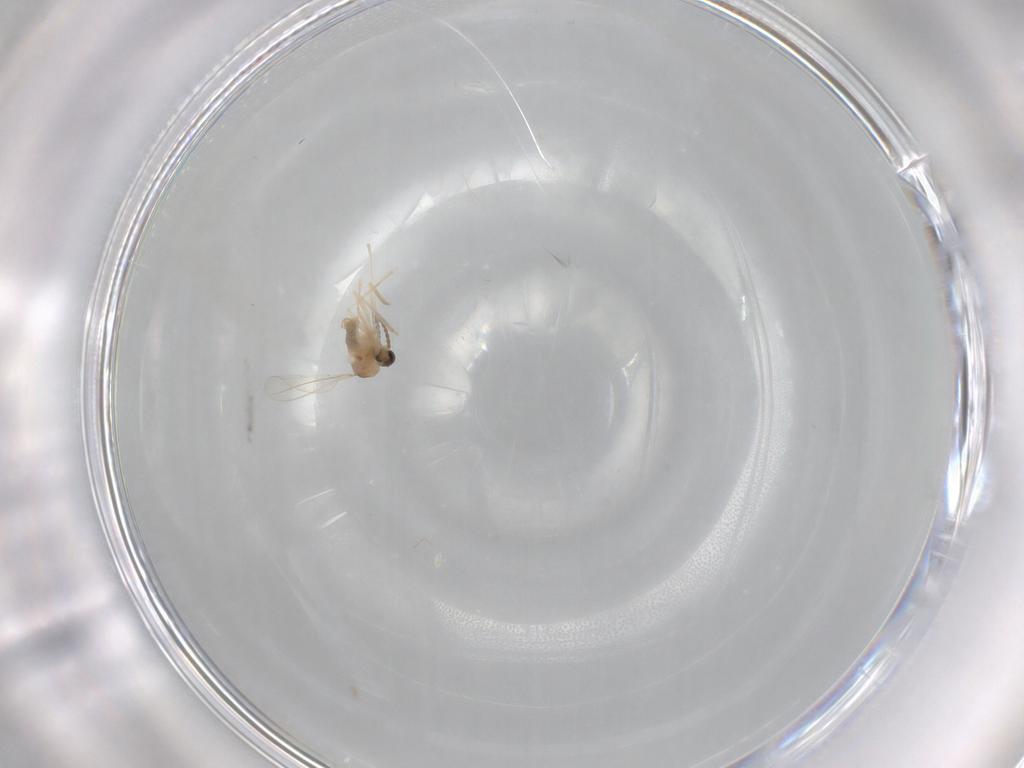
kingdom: Animalia
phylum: Arthropoda
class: Insecta
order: Diptera
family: Cecidomyiidae
